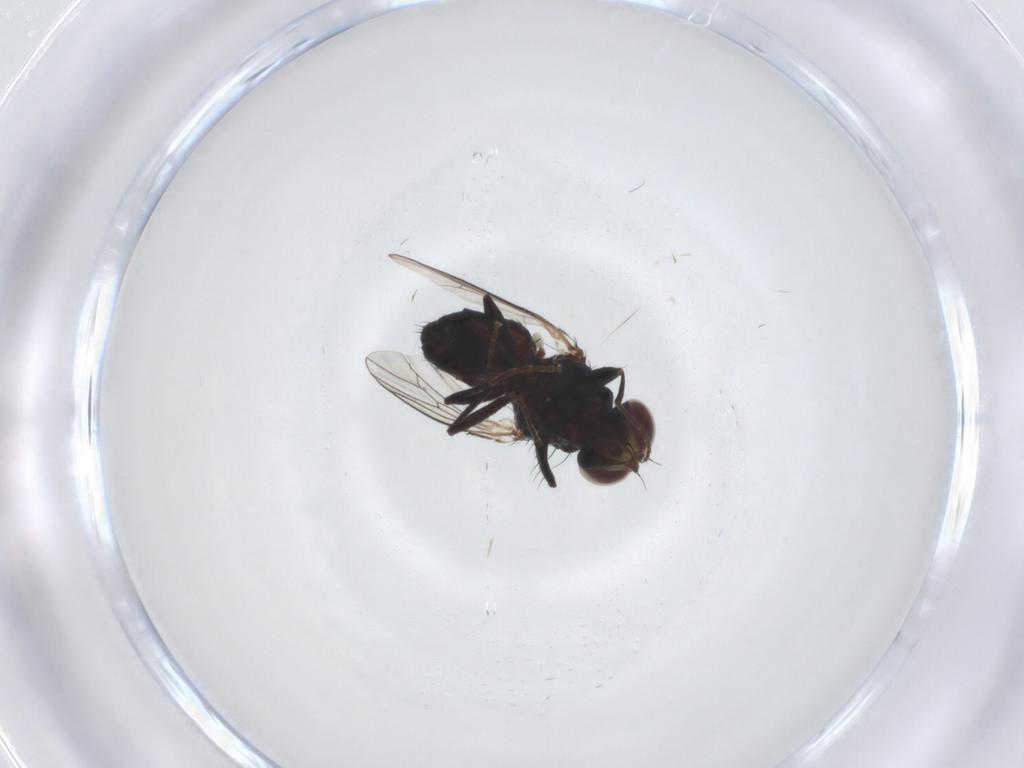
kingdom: Animalia
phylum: Arthropoda
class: Insecta
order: Diptera
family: Carnidae
